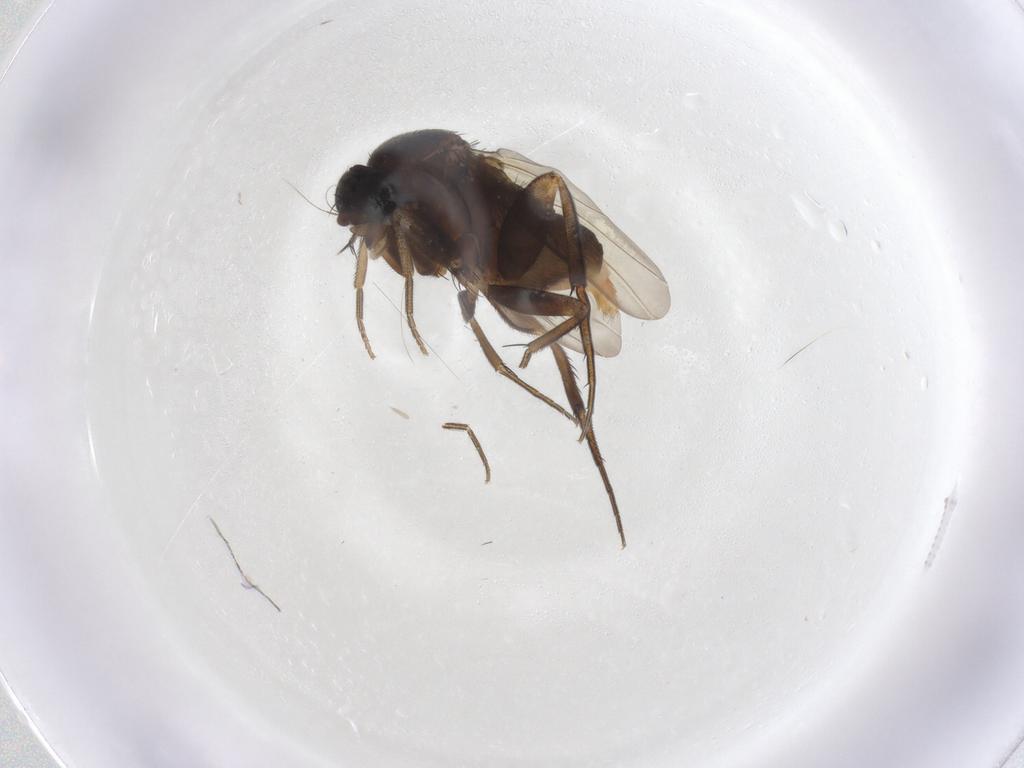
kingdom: Animalia
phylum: Arthropoda
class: Insecta
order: Diptera
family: Phoridae
